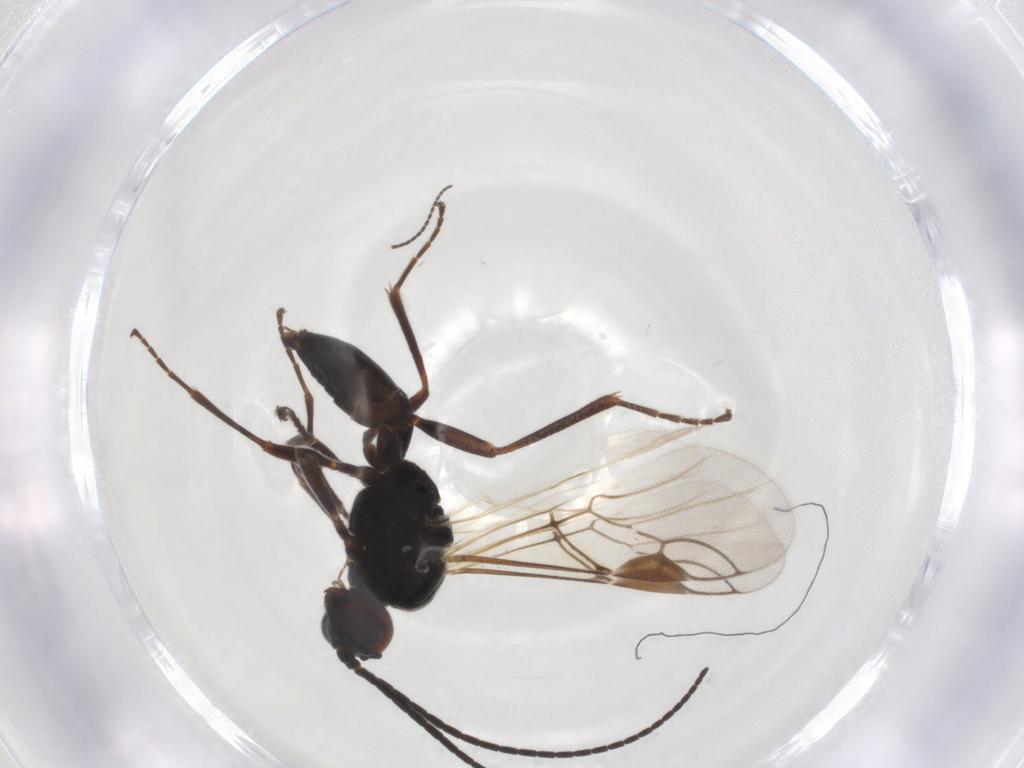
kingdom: Animalia
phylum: Arthropoda
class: Insecta
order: Hymenoptera
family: Braconidae
